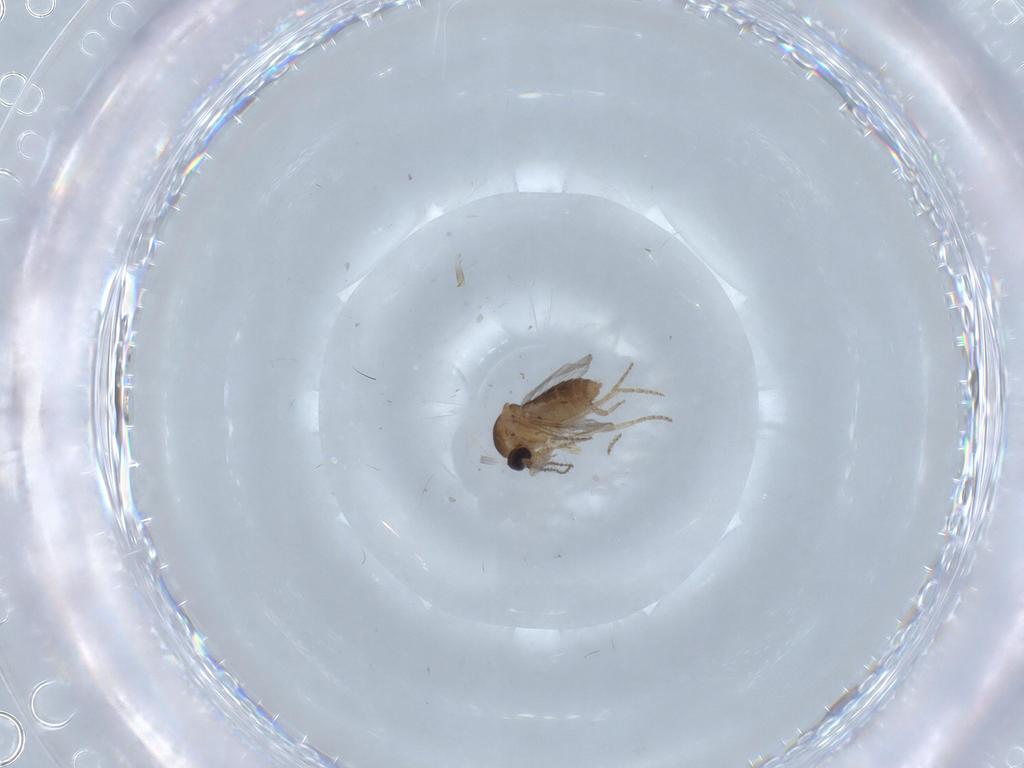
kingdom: Animalia
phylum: Arthropoda
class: Insecta
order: Diptera
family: Ceratopogonidae
